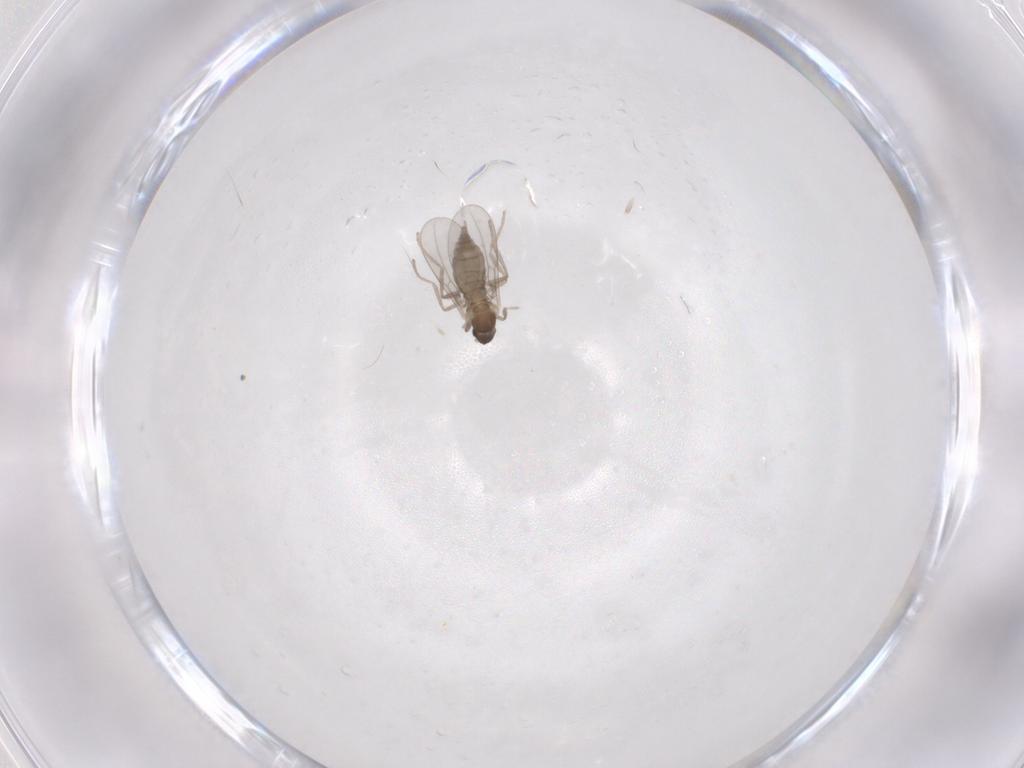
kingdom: Animalia
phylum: Arthropoda
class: Insecta
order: Diptera
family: Cecidomyiidae
